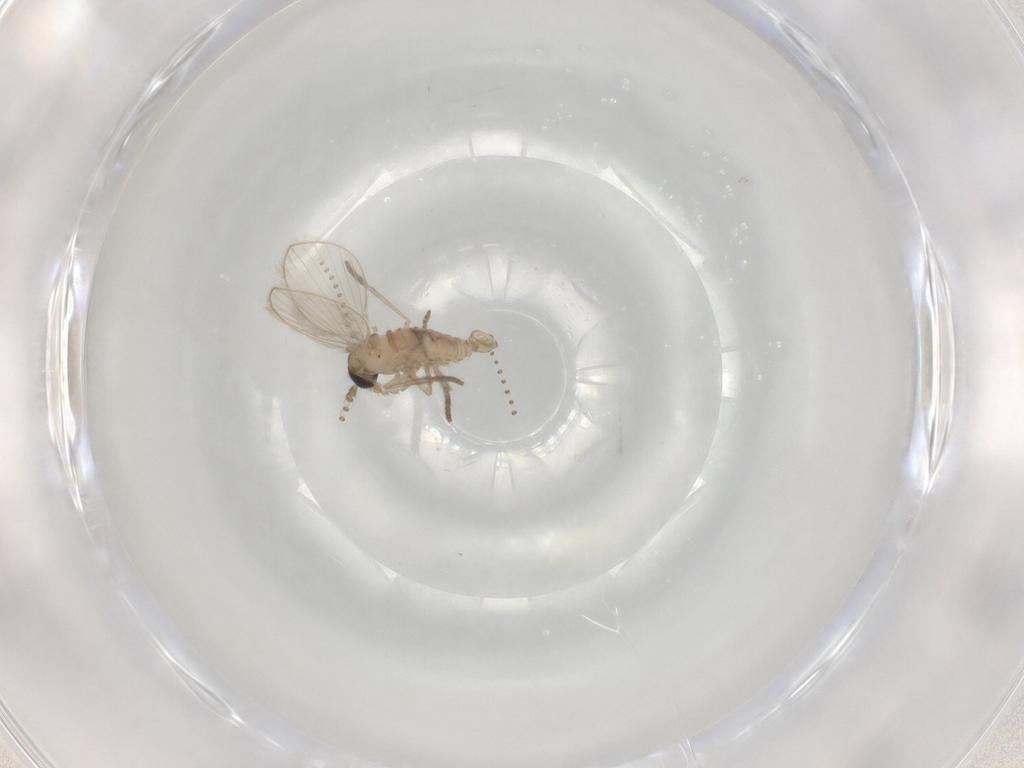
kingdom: Animalia
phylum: Arthropoda
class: Insecta
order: Diptera
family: Psychodidae
